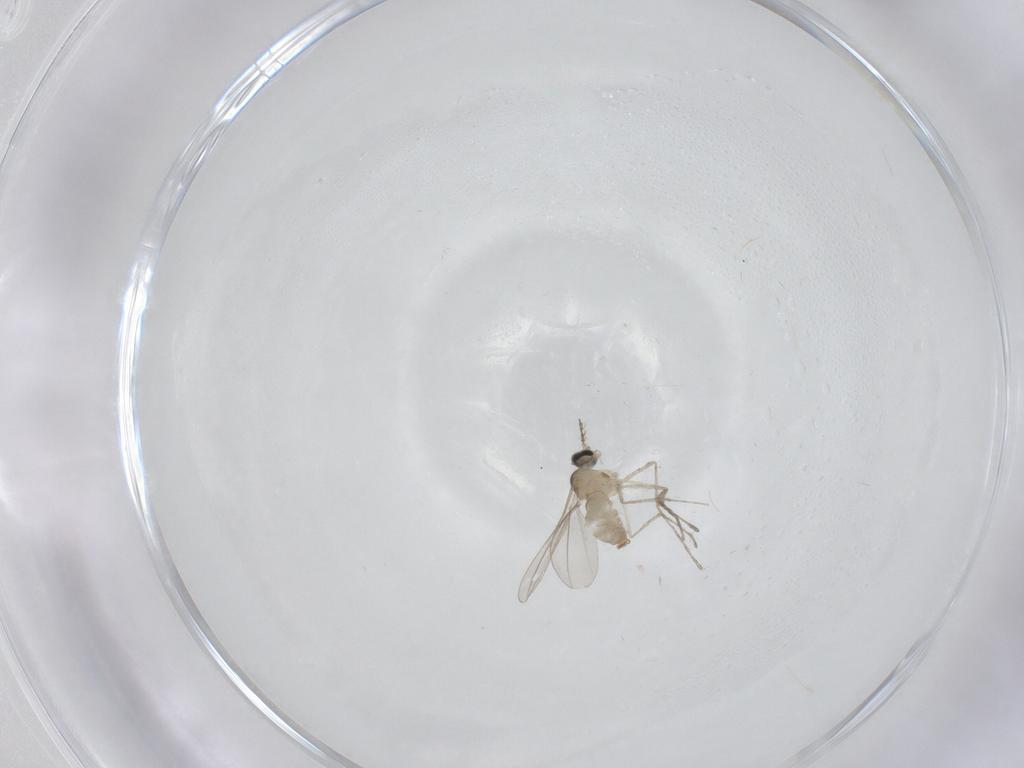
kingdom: Animalia
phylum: Arthropoda
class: Insecta
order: Diptera
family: Cecidomyiidae
